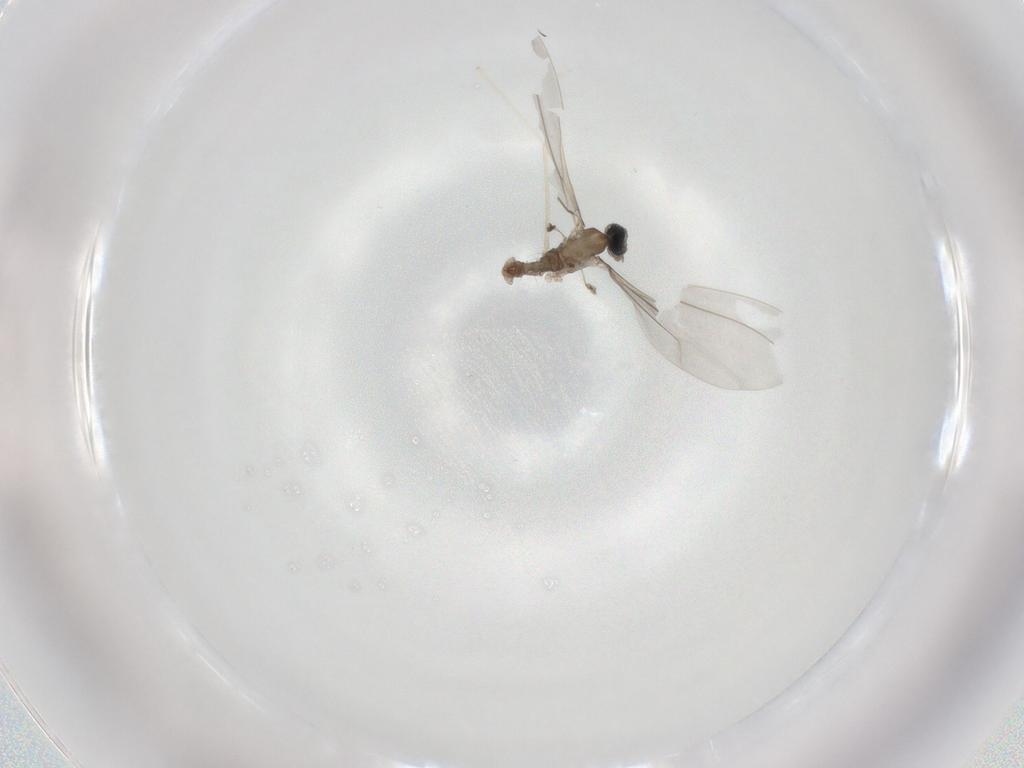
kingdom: Animalia
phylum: Arthropoda
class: Insecta
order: Diptera
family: Cecidomyiidae
